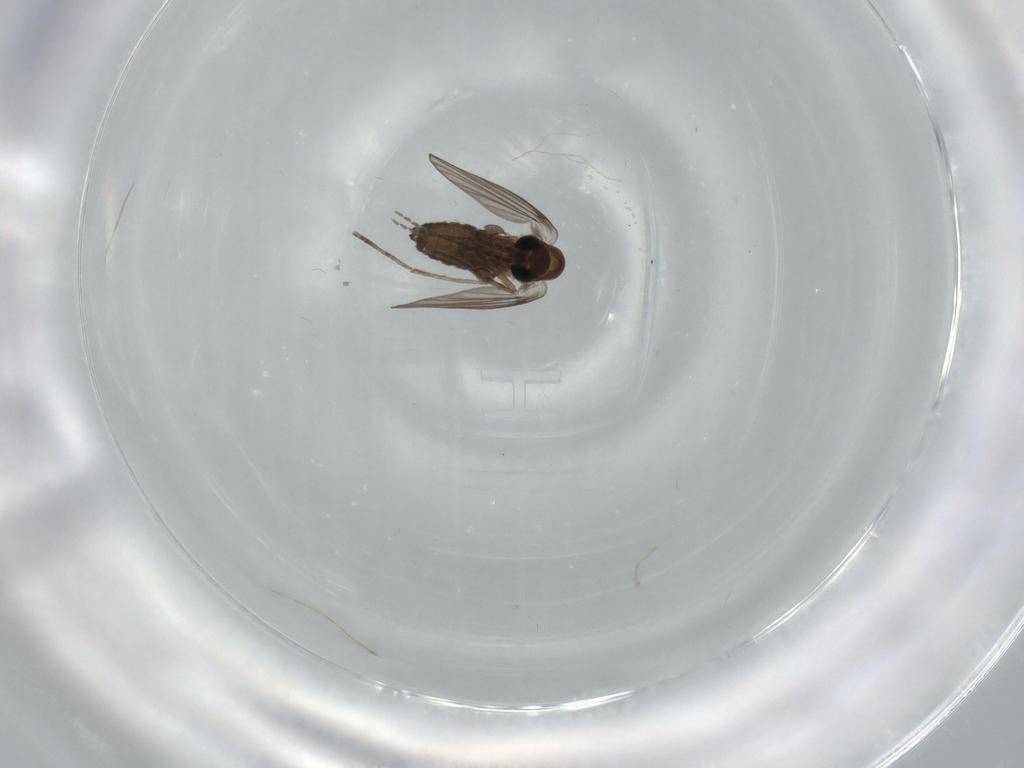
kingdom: Animalia
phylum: Arthropoda
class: Insecta
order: Diptera
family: Psychodidae
